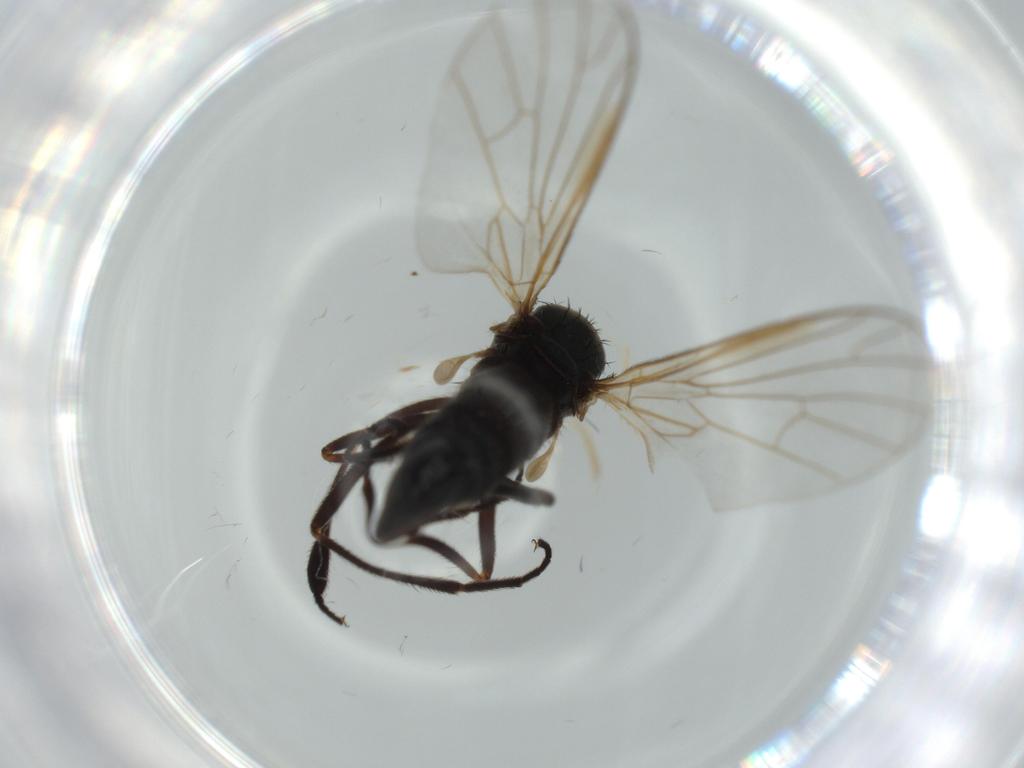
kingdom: Animalia
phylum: Arthropoda
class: Insecta
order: Diptera
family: Empididae
